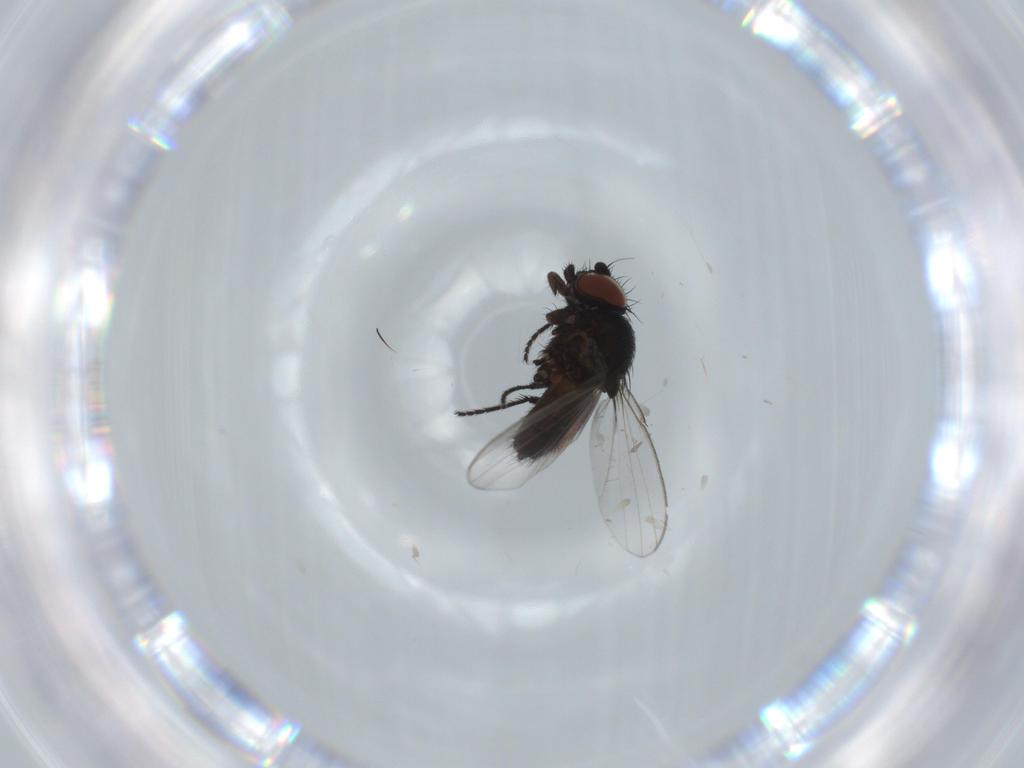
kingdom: Animalia
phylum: Arthropoda
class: Insecta
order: Diptera
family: Milichiidae
